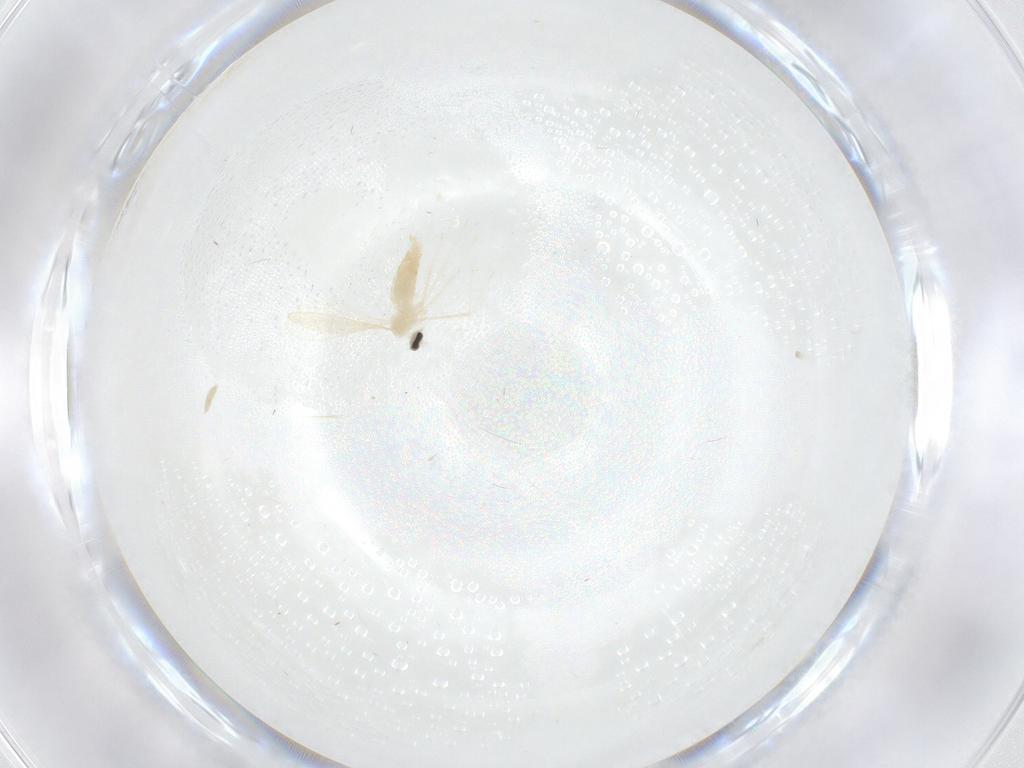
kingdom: Animalia
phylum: Arthropoda
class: Insecta
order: Diptera
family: Cecidomyiidae
